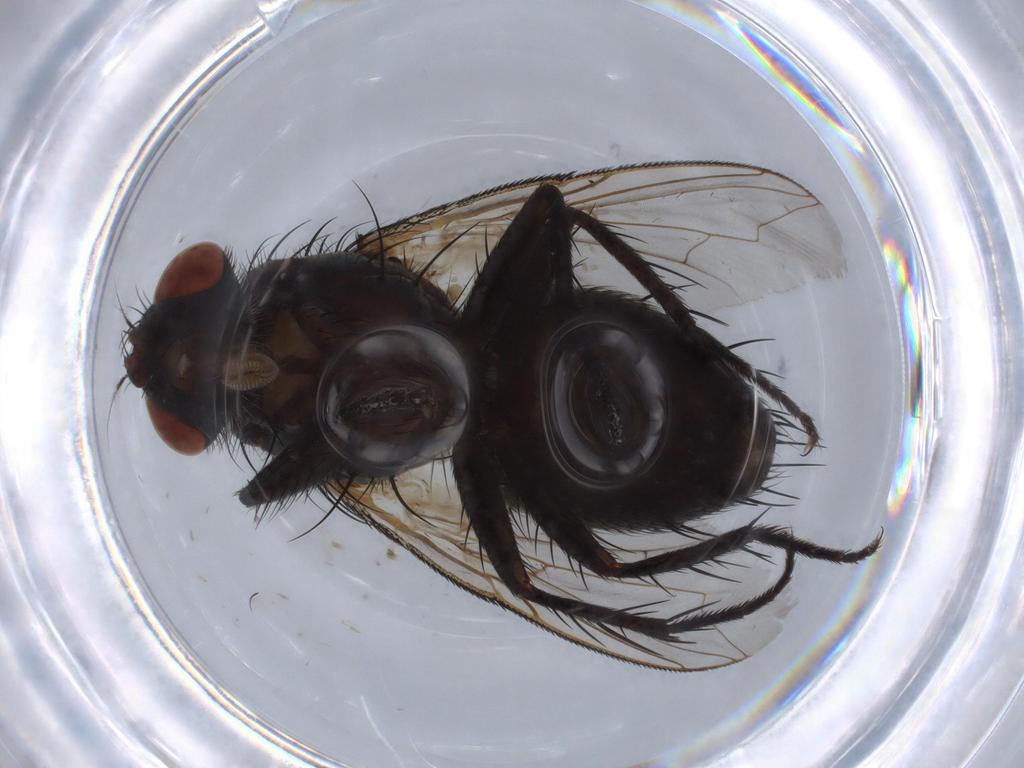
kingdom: Animalia
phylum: Arthropoda
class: Insecta
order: Diptera
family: Sarcophagidae
